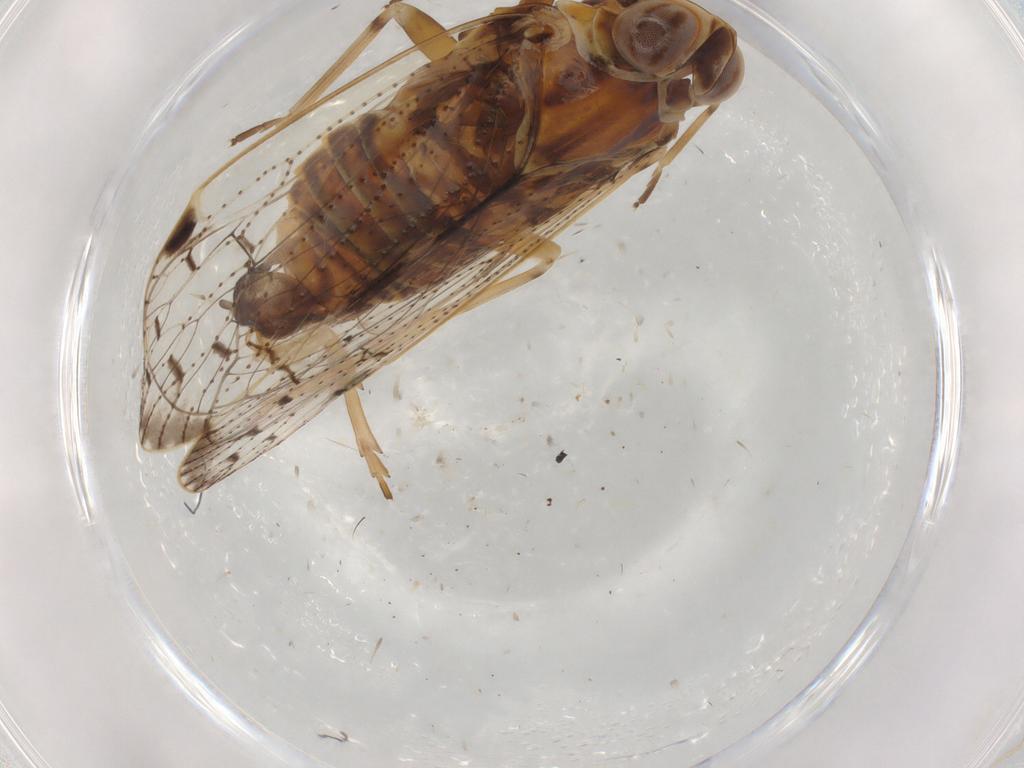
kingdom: Animalia
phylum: Arthropoda
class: Insecta
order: Hemiptera
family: Cixiidae
